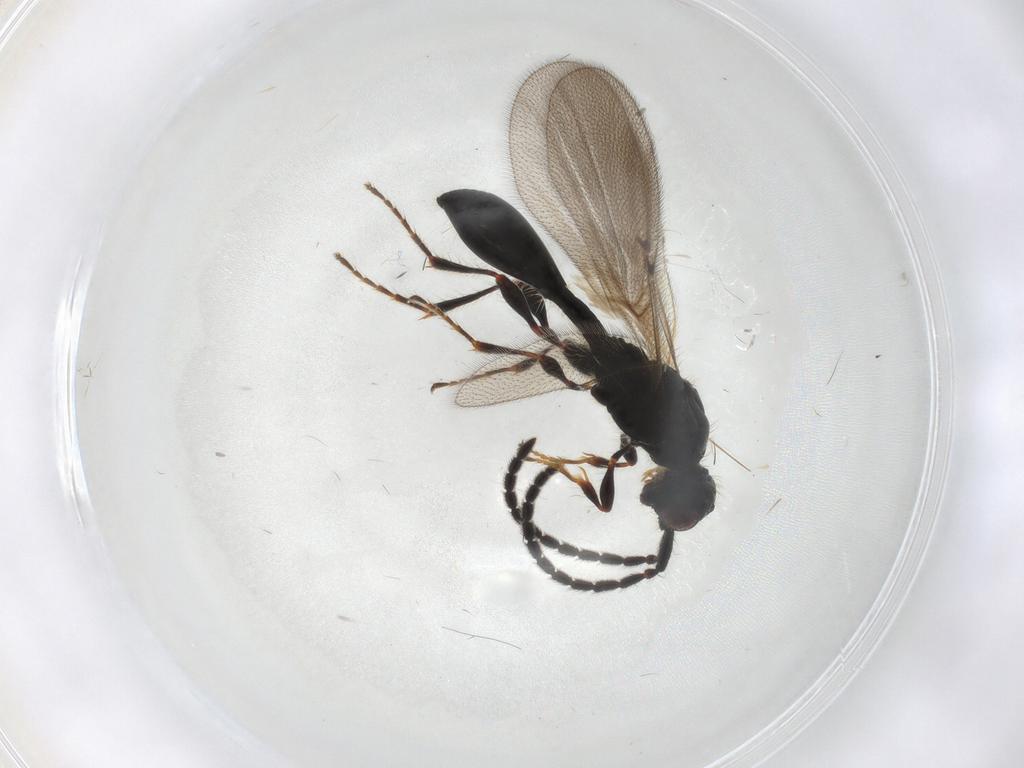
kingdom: Animalia
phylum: Arthropoda
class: Insecta
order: Hymenoptera
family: Diapriidae
